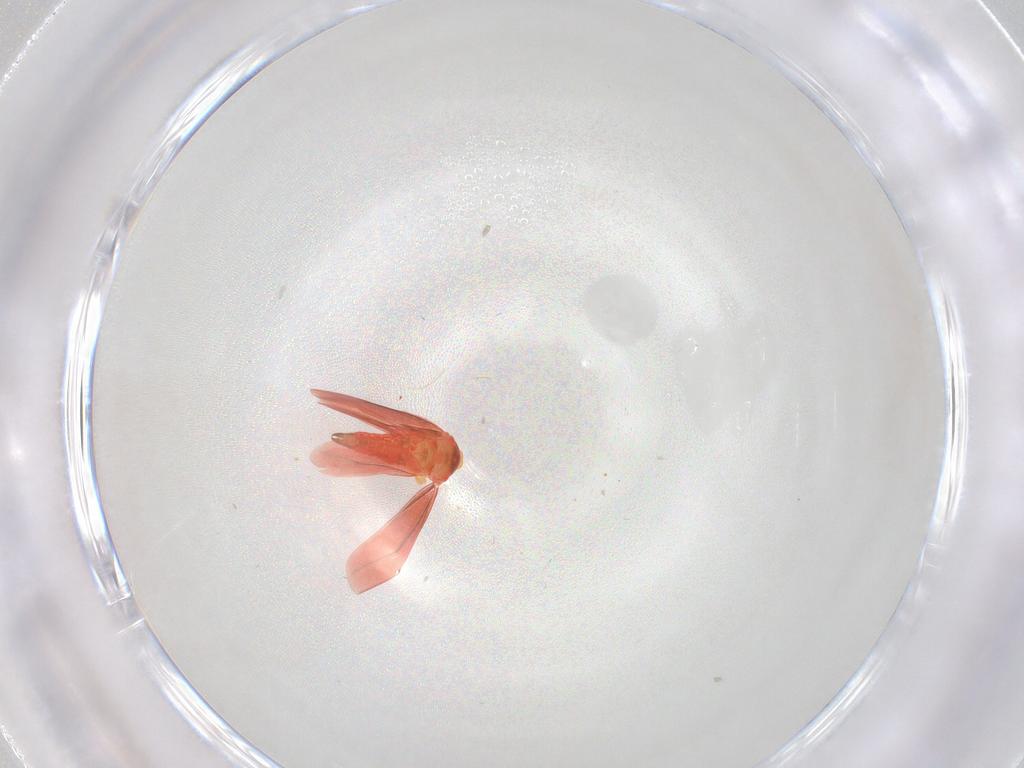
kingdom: Animalia
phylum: Arthropoda
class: Insecta
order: Hemiptera
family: Aleyrodidae
